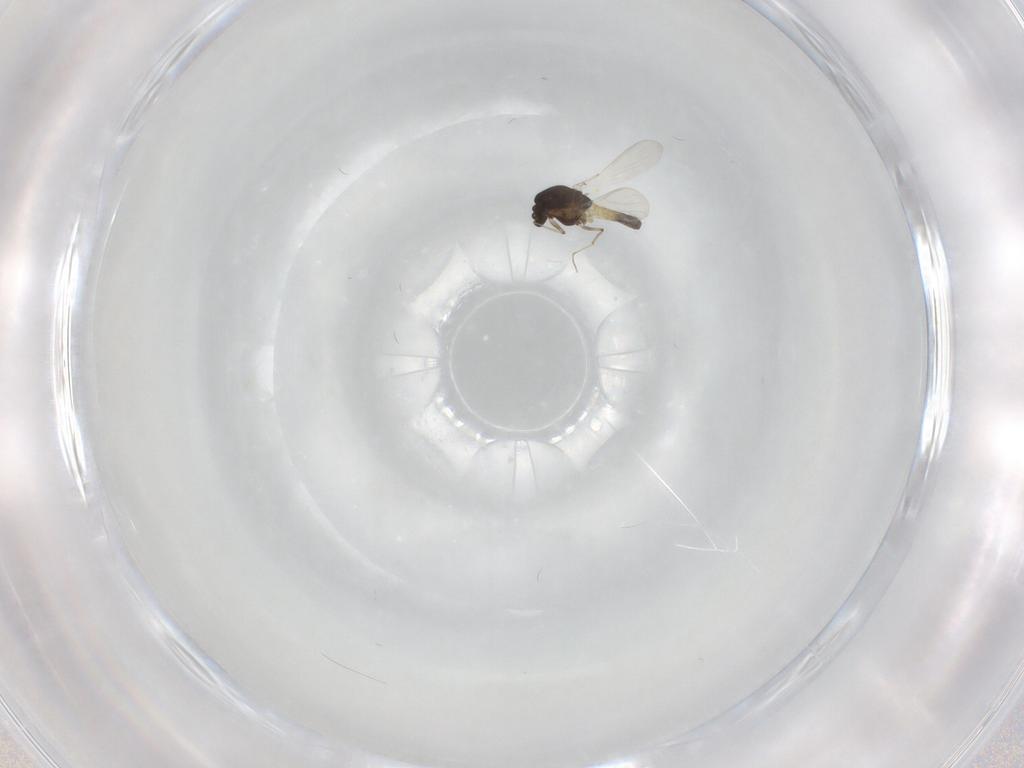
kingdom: Animalia
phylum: Arthropoda
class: Insecta
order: Diptera
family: Chironomidae
